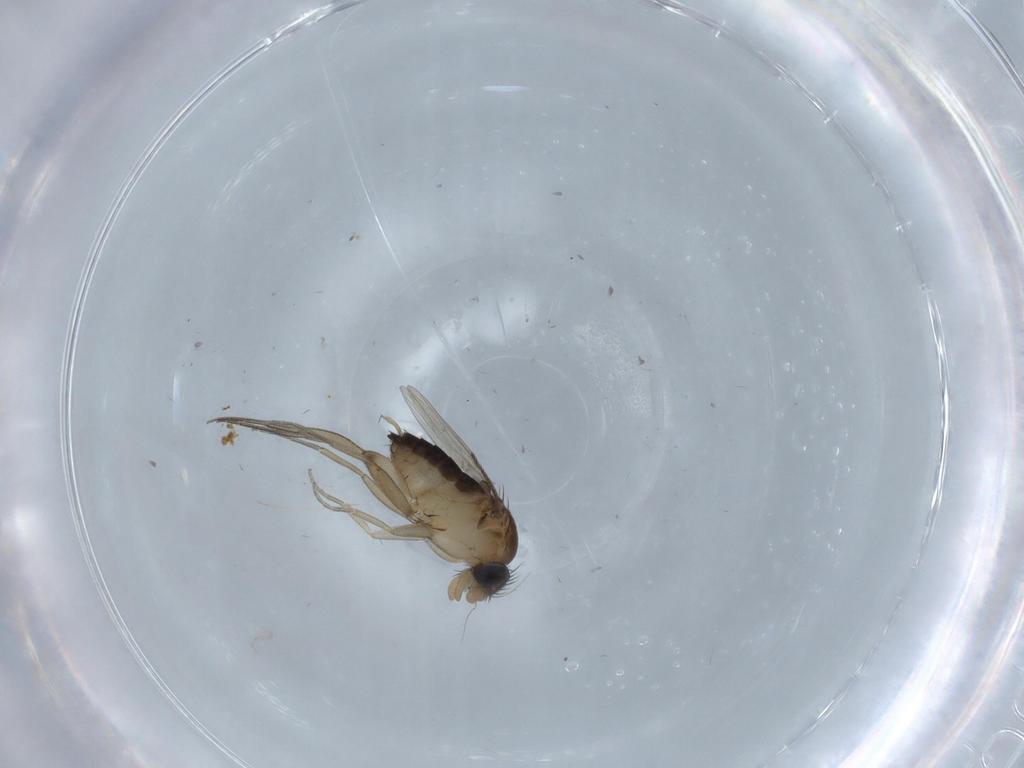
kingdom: Animalia
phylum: Arthropoda
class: Insecta
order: Diptera
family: Cecidomyiidae
